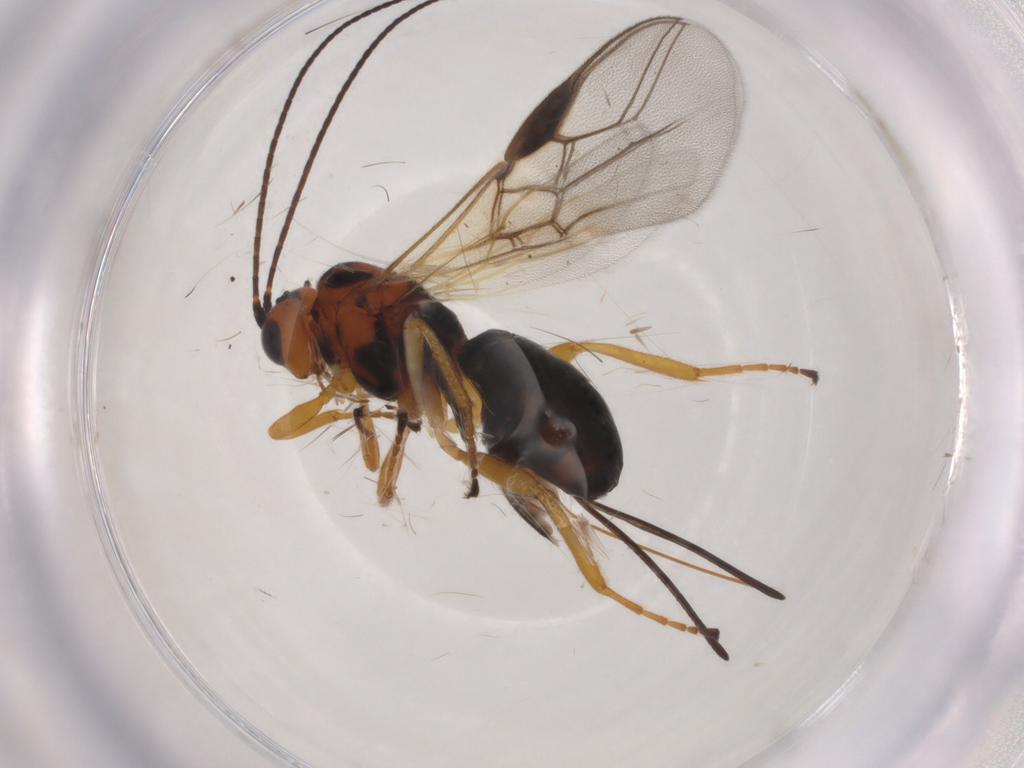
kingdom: Animalia
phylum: Arthropoda
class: Insecta
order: Hymenoptera
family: Braconidae
